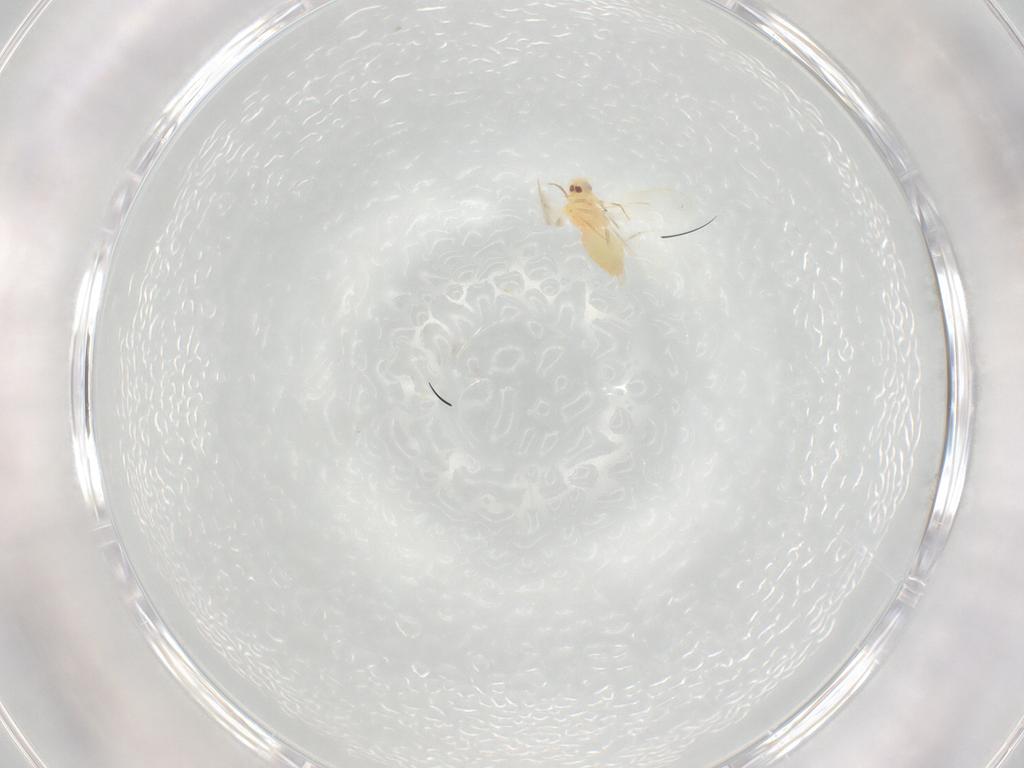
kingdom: Animalia
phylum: Arthropoda
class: Insecta
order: Hemiptera
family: Aleyrodidae
